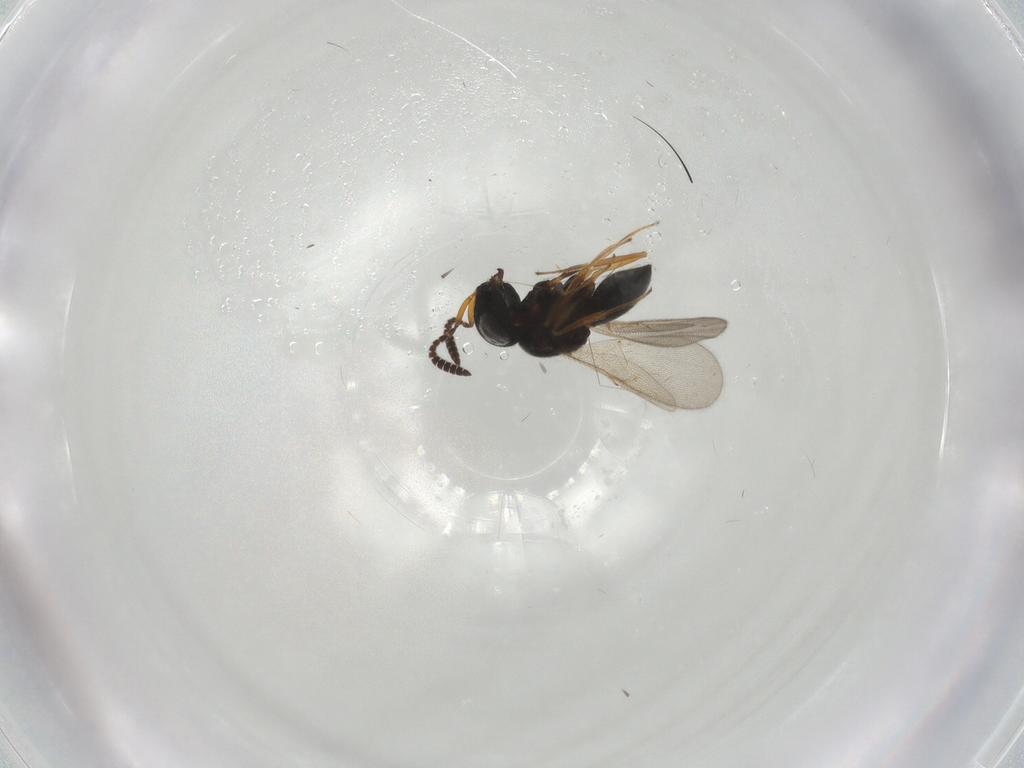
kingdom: Animalia
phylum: Arthropoda
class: Insecta
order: Hymenoptera
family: Scelionidae
